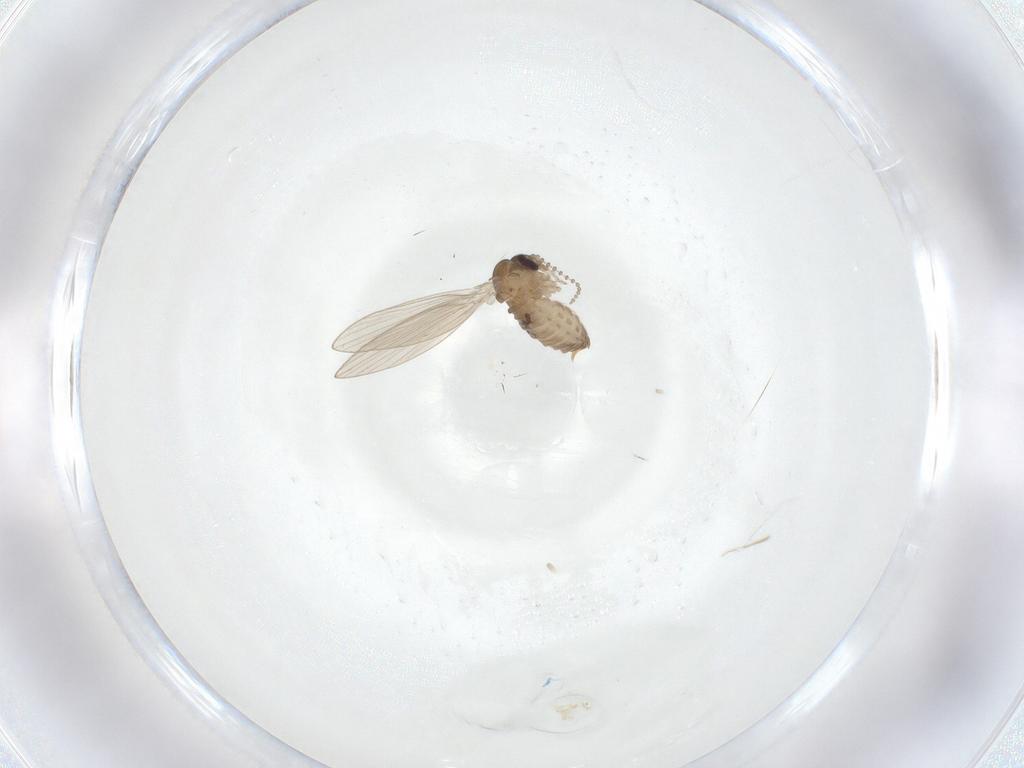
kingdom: Animalia
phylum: Arthropoda
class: Insecta
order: Diptera
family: Psychodidae
